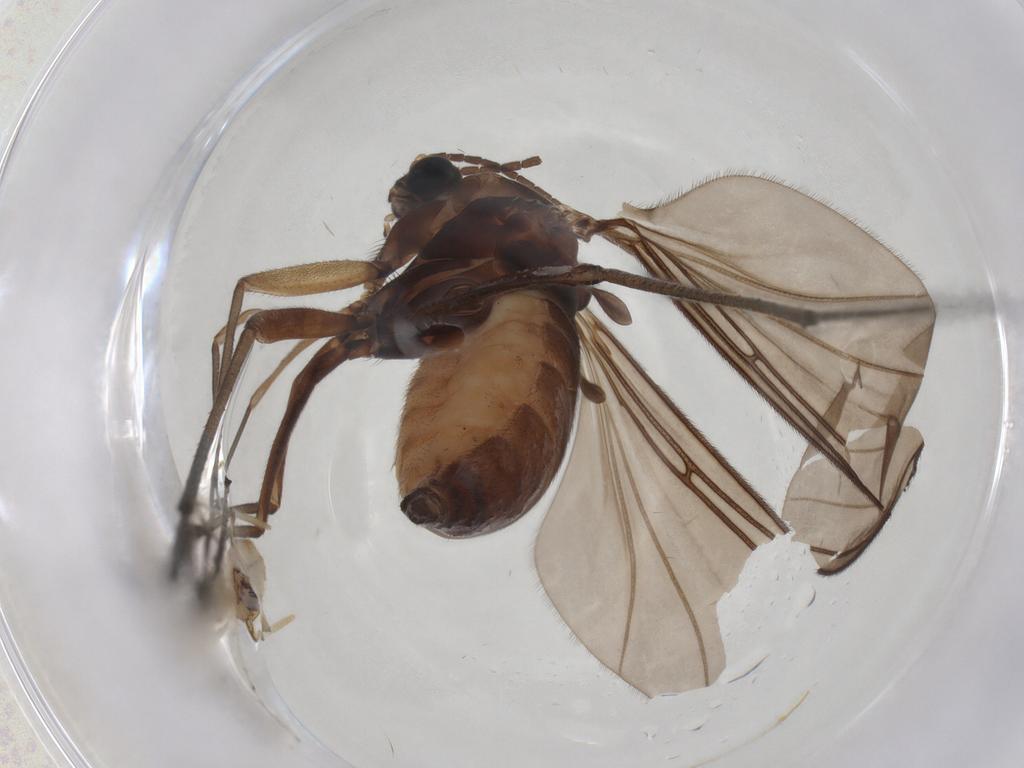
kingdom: Animalia
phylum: Arthropoda
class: Insecta
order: Diptera
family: Sciaridae
